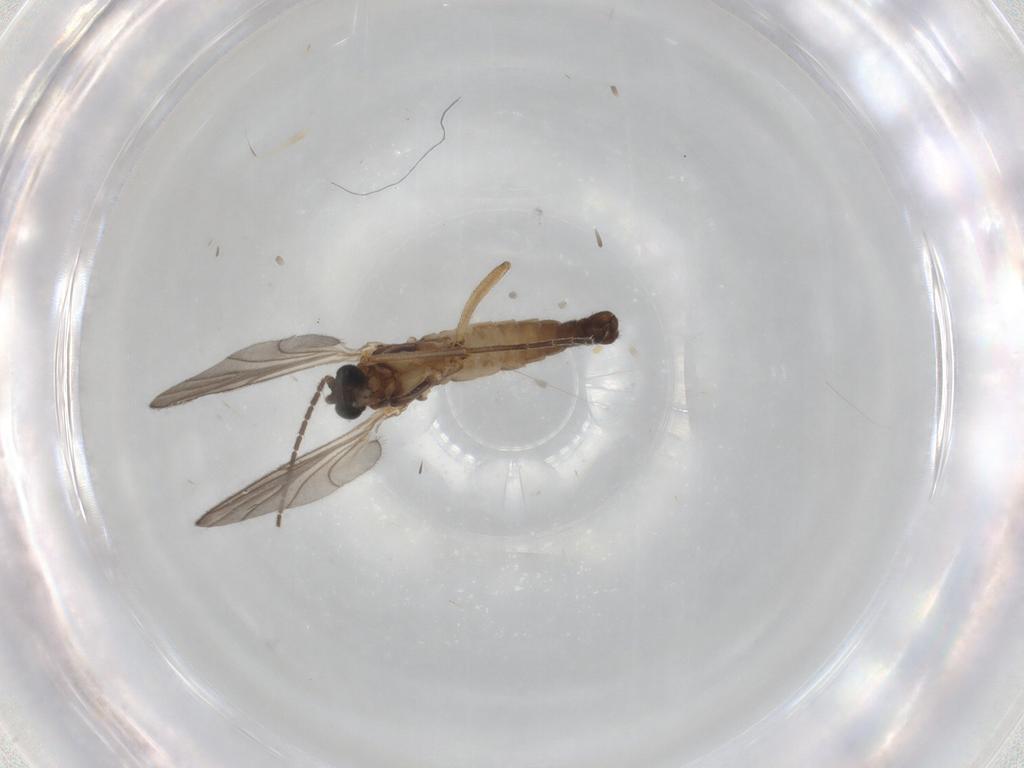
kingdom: Animalia
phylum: Arthropoda
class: Insecta
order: Diptera
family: Sciaridae
